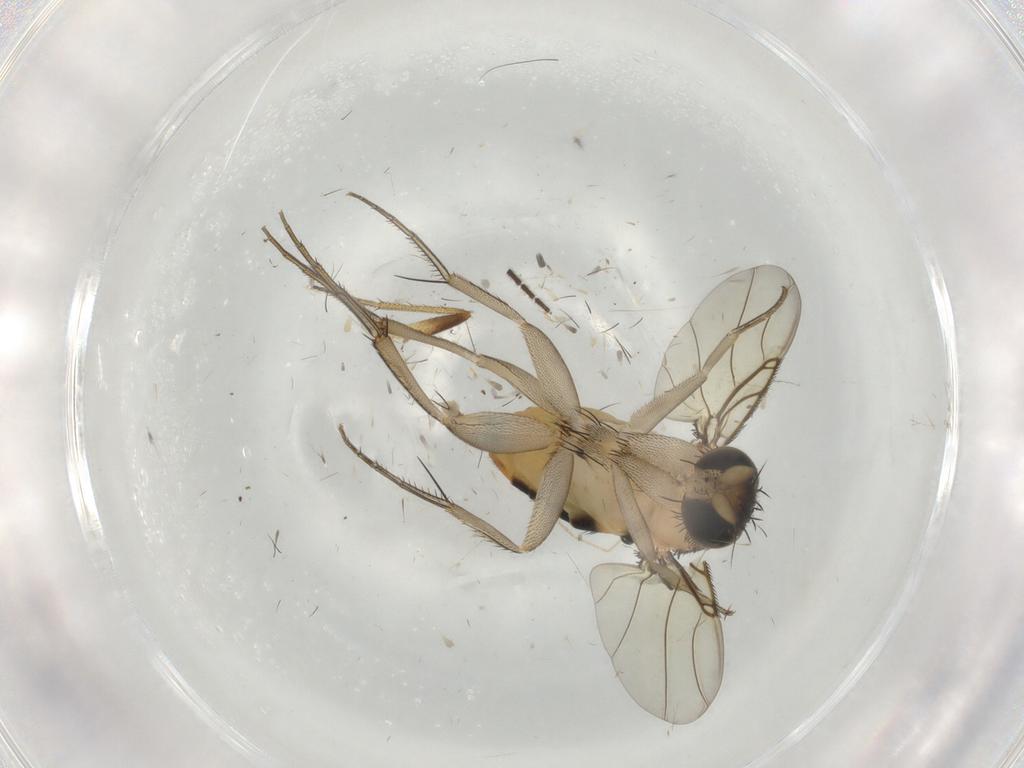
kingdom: Animalia
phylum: Arthropoda
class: Insecta
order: Diptera
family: Phoridae
